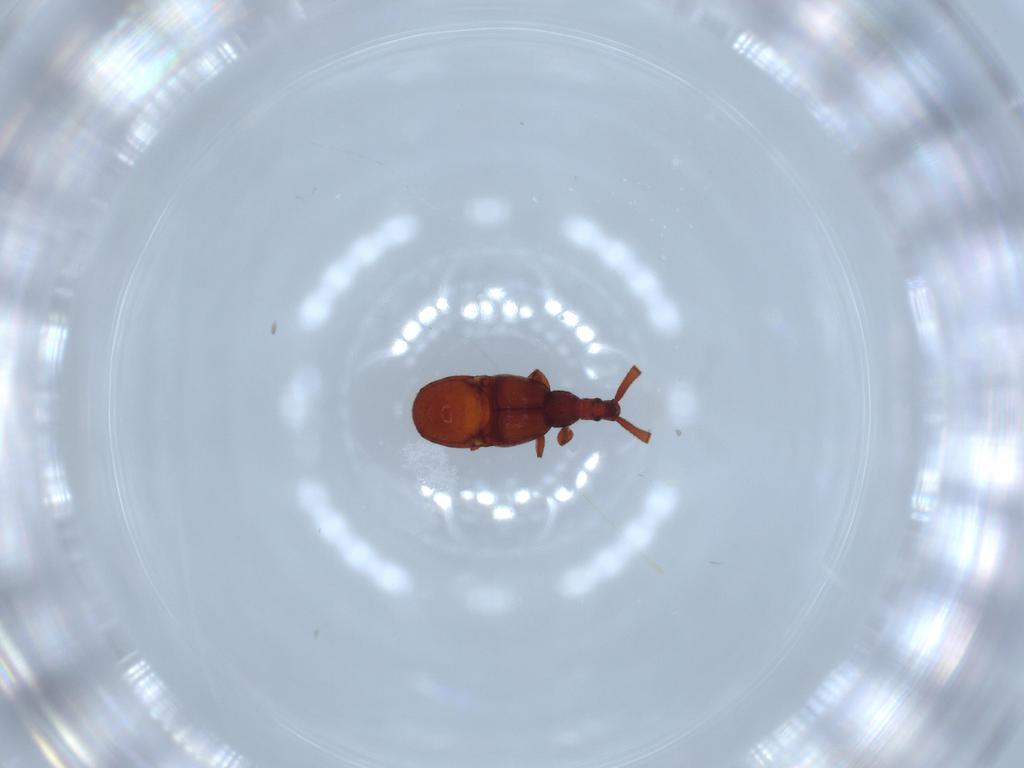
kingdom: Animalia
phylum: Arthropoda
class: Insecta
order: Coleoptera
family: Staphylinidae
